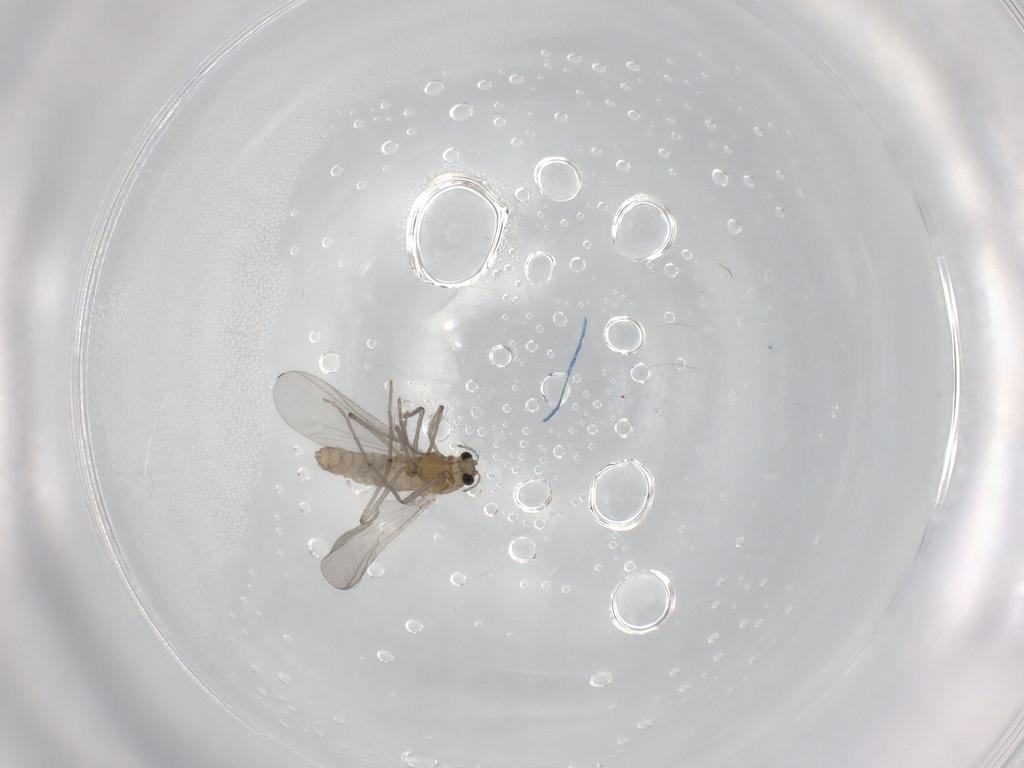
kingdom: Animalia
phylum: Arthropoda
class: Insecta
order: Diptera
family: Chironomidae
